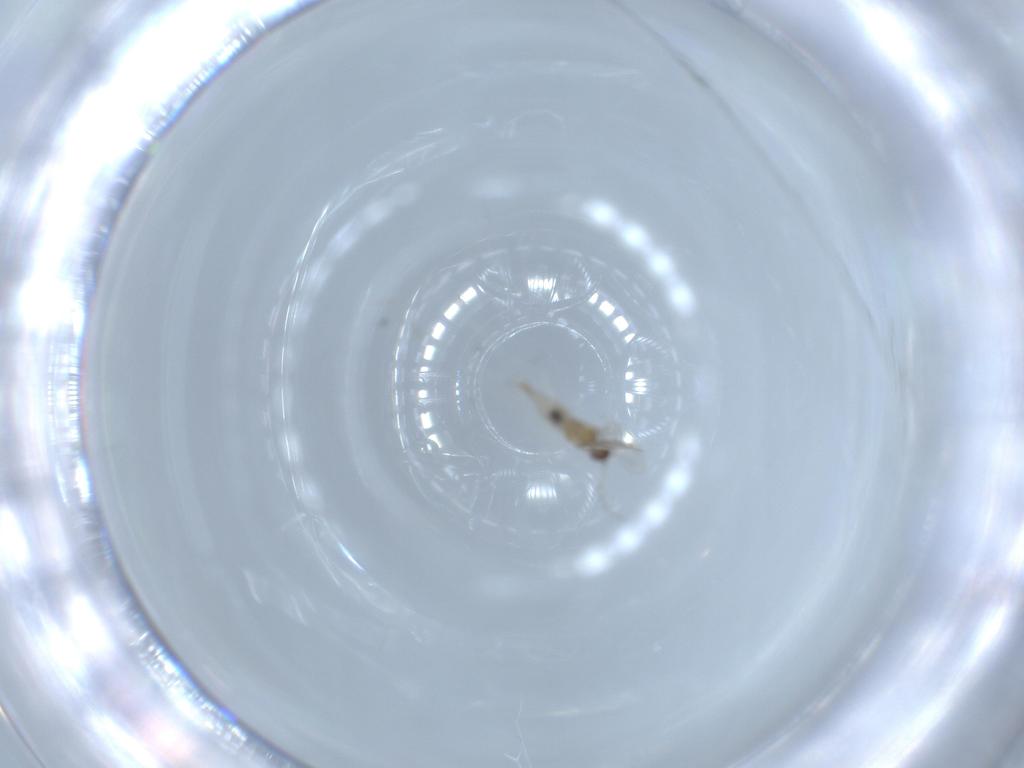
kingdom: Animalia
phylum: Arthropoda
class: Insecta
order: Diptera
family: Cecidomyiidae
